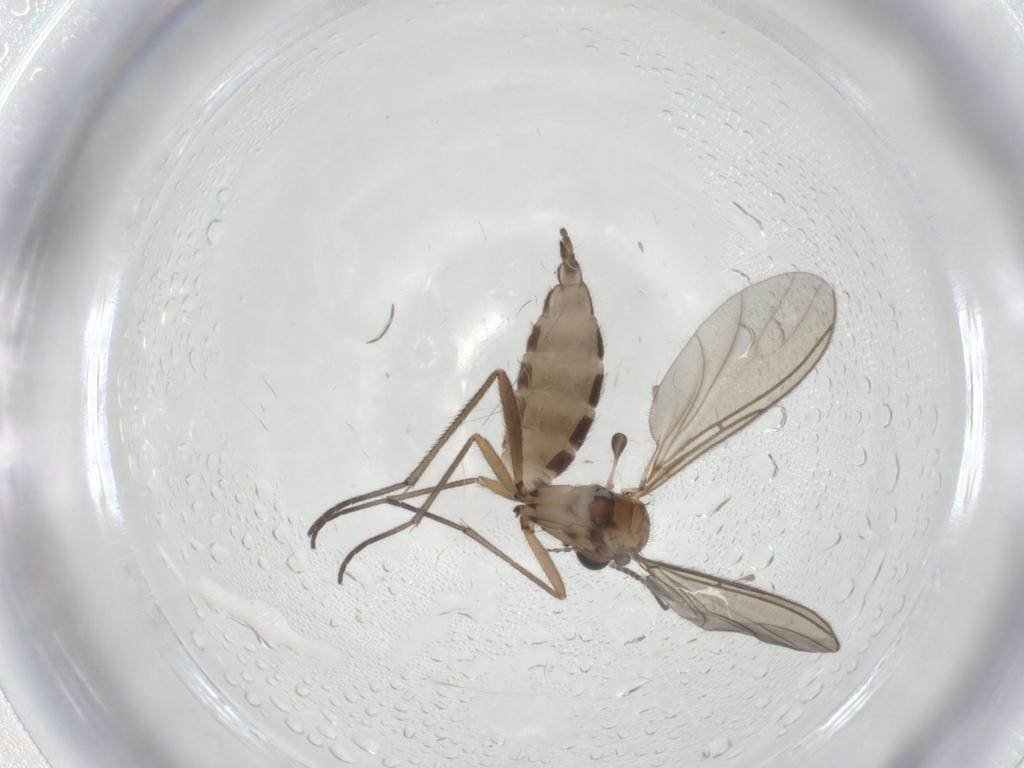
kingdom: Animalia
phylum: Arthropoda
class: Insecta
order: Diptera
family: Sciaridae
